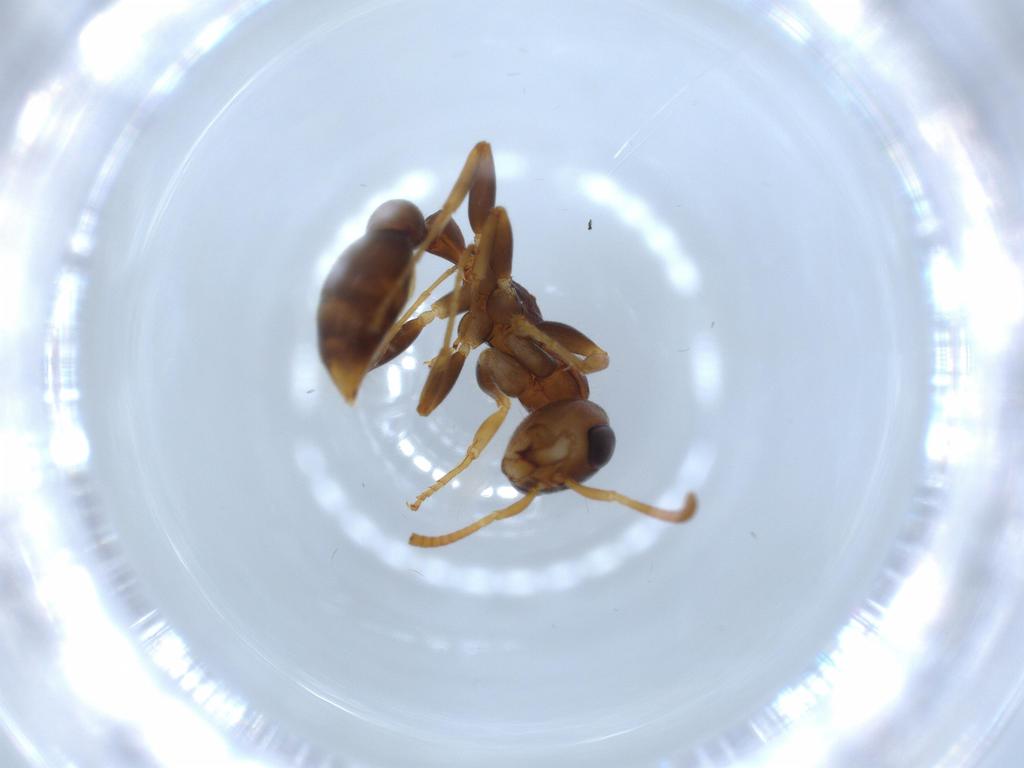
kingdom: Animalia
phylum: Arthropoda
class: Insecta
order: Hymenoptera
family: Formicidae
